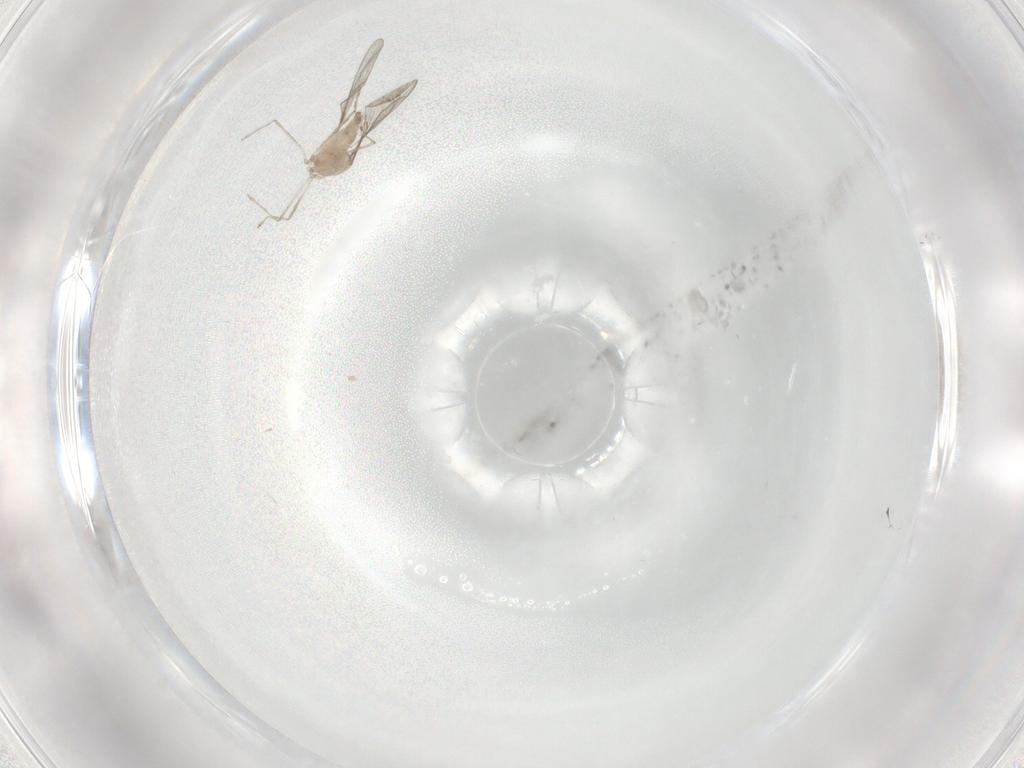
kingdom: Animalia
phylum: Arthropoda
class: Insecta
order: Diptera
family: Cecidomyiidae
